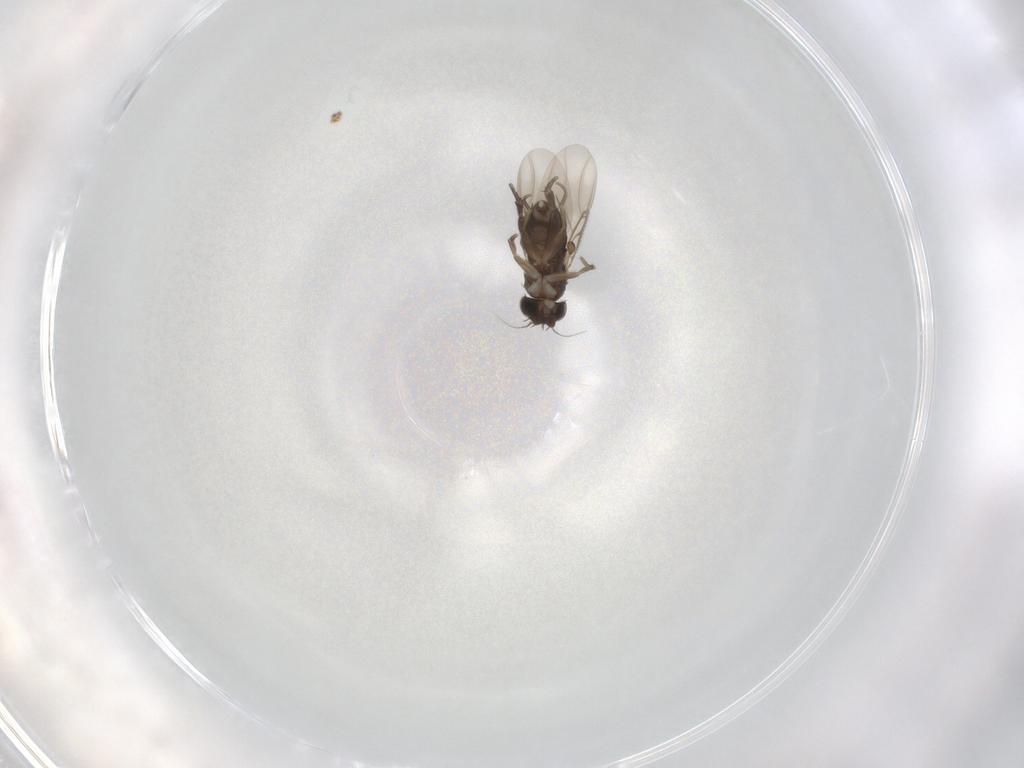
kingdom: Animalia
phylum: Arthropoda
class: Insecta
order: Diptera
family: Phoridae
